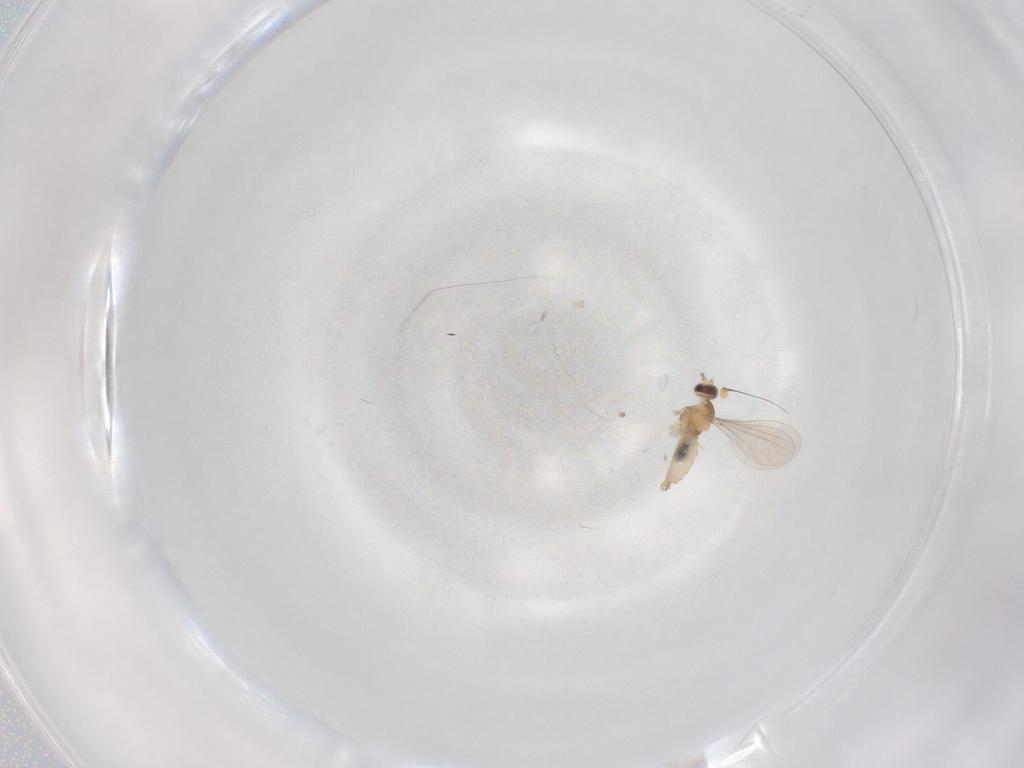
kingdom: Animalia
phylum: Arthropoda
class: Insecta
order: Diptera
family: Cecidomyiidae
